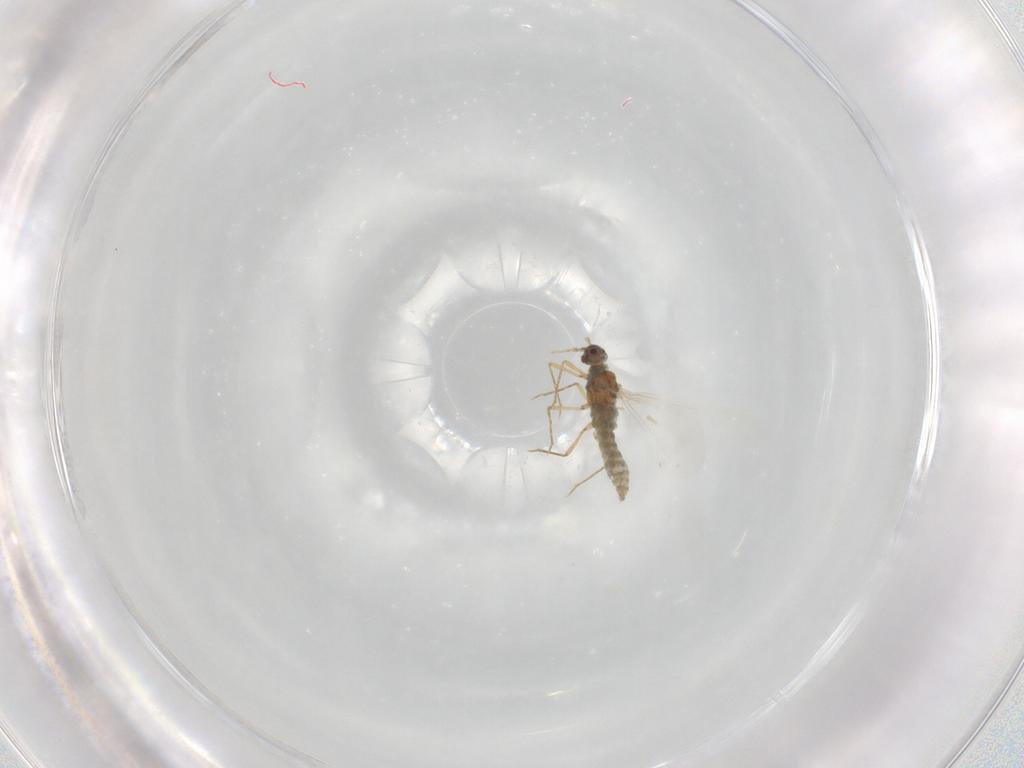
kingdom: Animalia
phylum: Arthropoda
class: Insecta
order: Hemiptera
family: Aphididae
